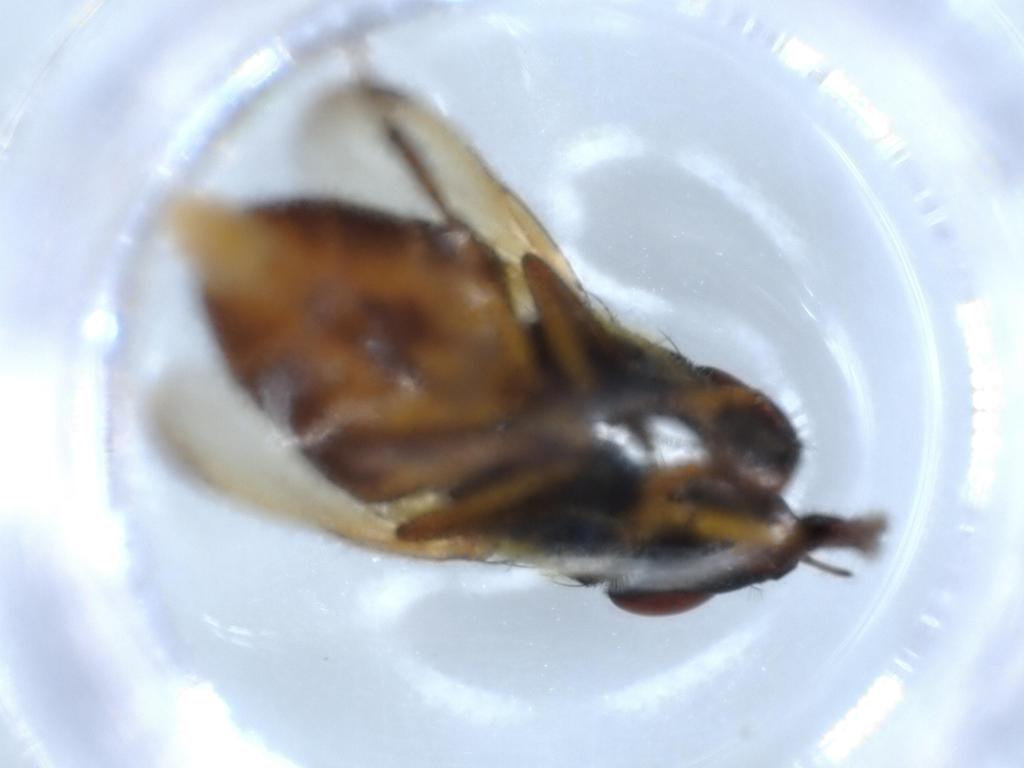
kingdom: Animalia
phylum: Arthropoda
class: Insecta
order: Diptera
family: Calliphoridae
